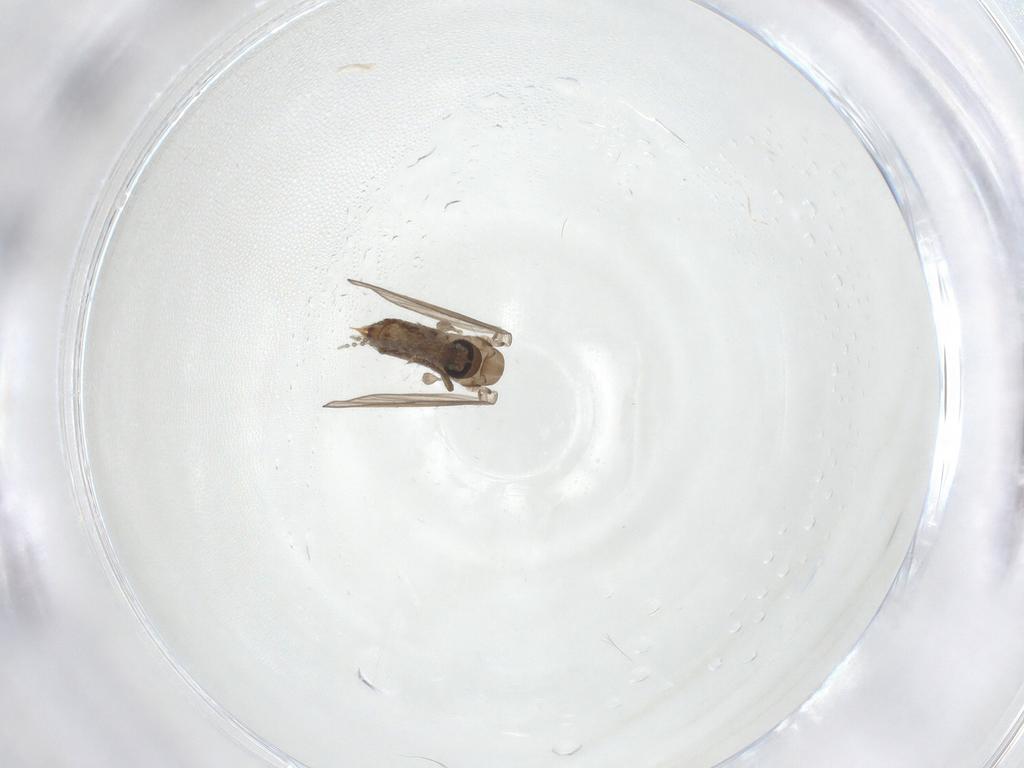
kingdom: Animalia
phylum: Arthropoda
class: Insecta
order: Diptera
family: Psychodidae
